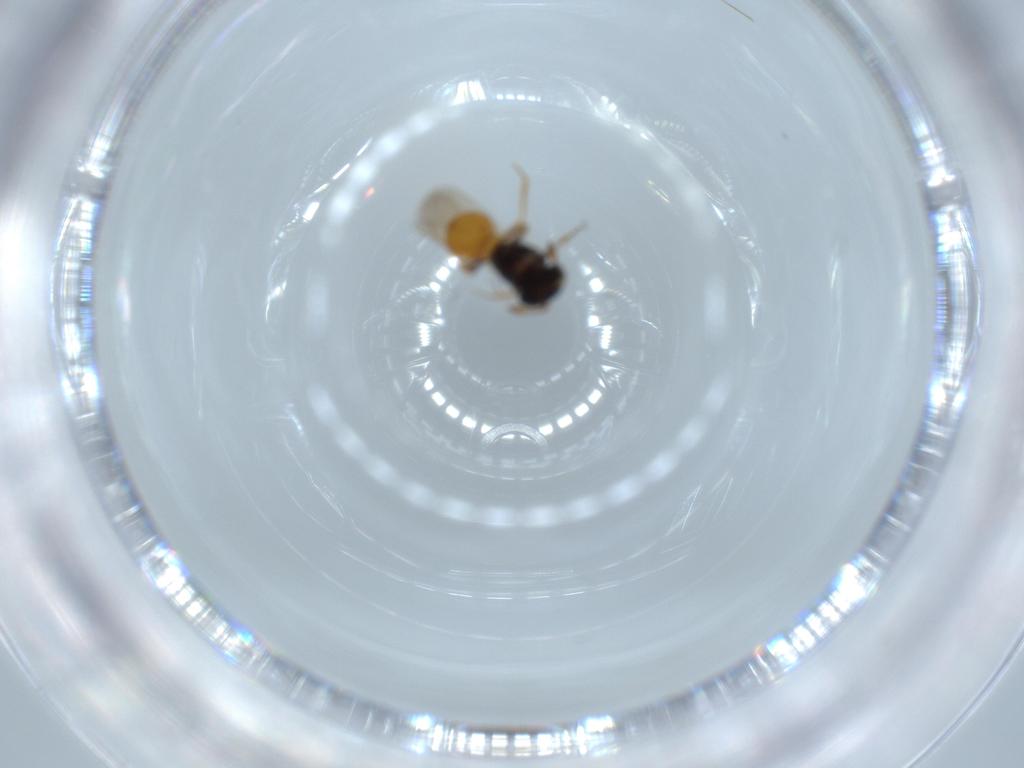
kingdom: Animalia
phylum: Arthropoda
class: Insecta
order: Hymenoptera
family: Scelionidae
